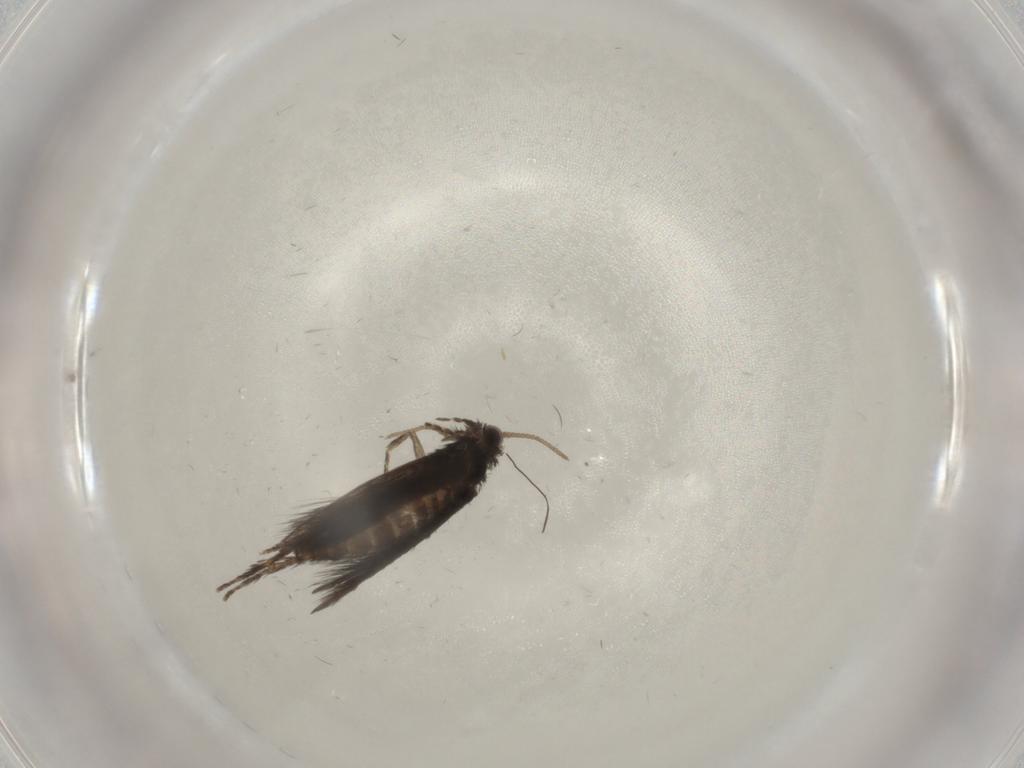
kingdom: Animalia
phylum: Arthropoda
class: Insecta
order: Trichoptera
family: Hydroptilidae
